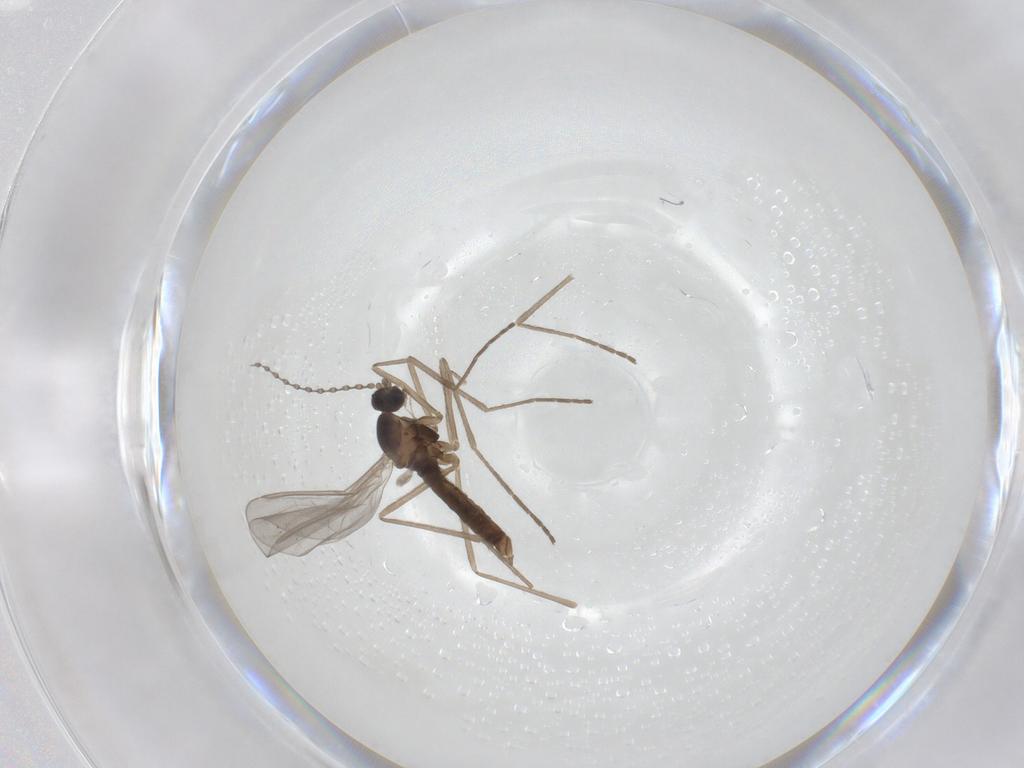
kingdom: Animalia
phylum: Arthropoda
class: Insecta
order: Diptera
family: Cecidomyiidae
